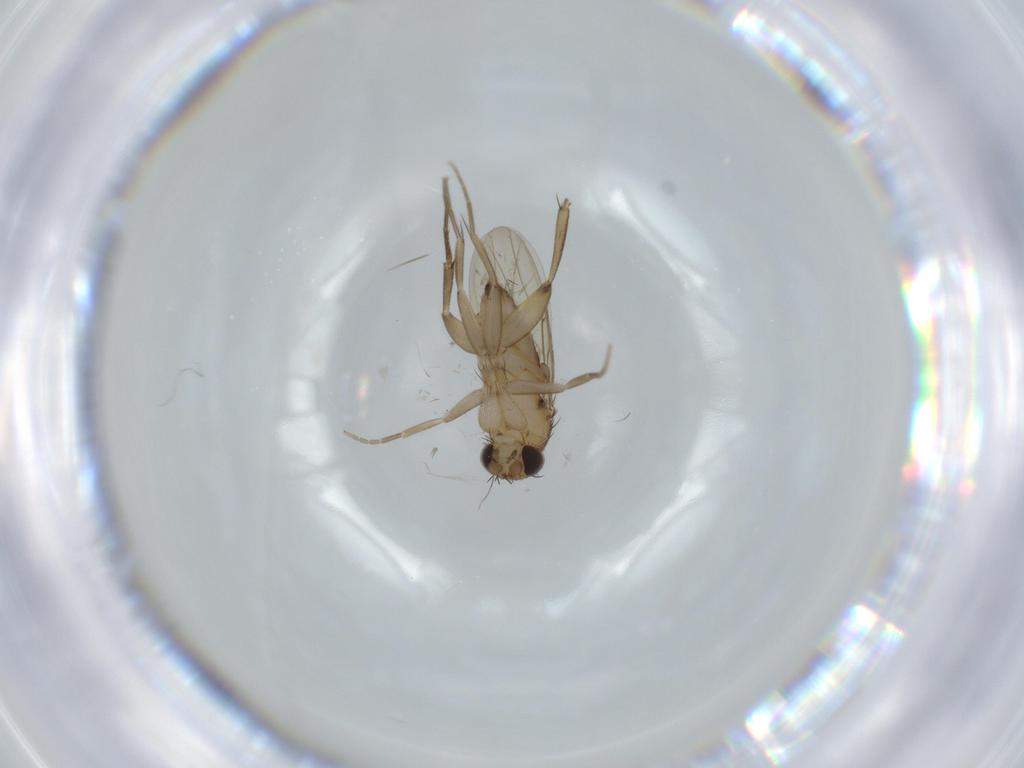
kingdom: Animalia
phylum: Arthropoda
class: Insecta
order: Diptera
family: Phoridae
